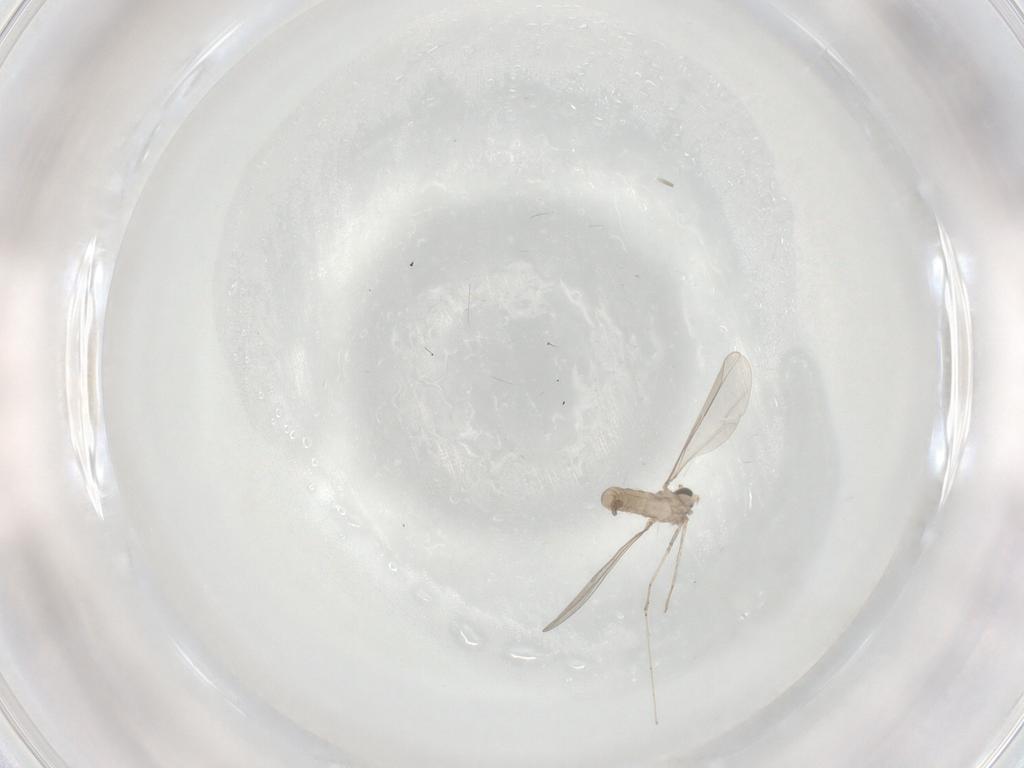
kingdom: Animalia
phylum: Arthropoda
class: Insecta
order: Diptera
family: Cecidomyiidae
